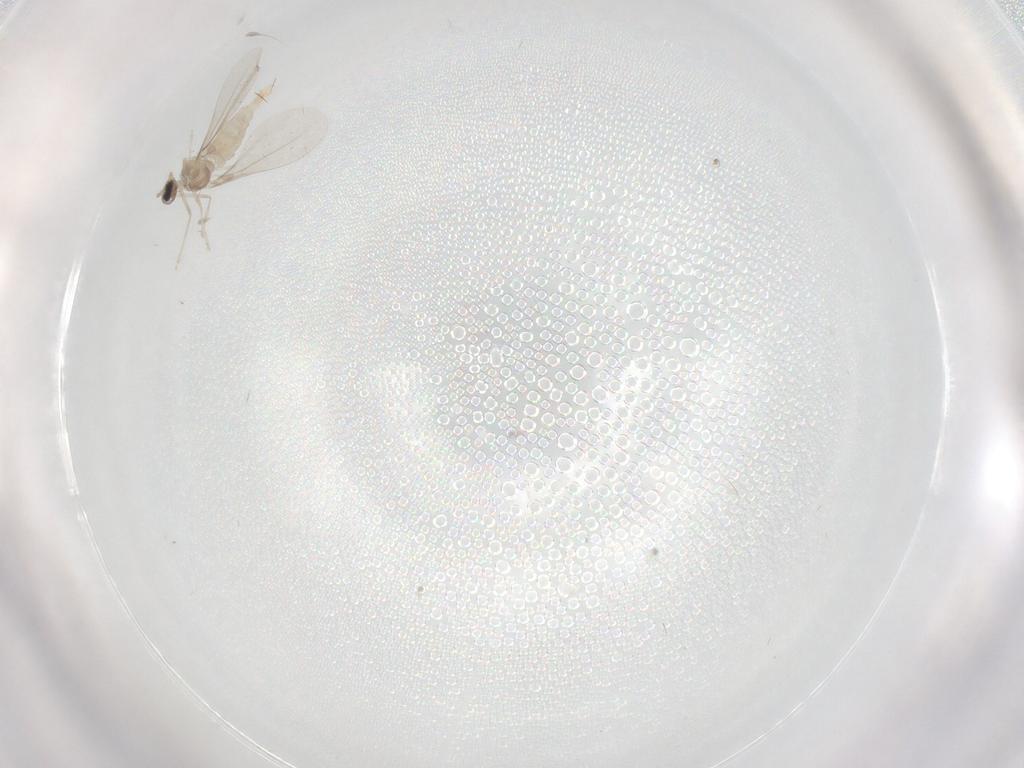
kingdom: Animalia
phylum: Arthropoda
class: Insecta
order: Diptera
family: Cecidomyiidae
